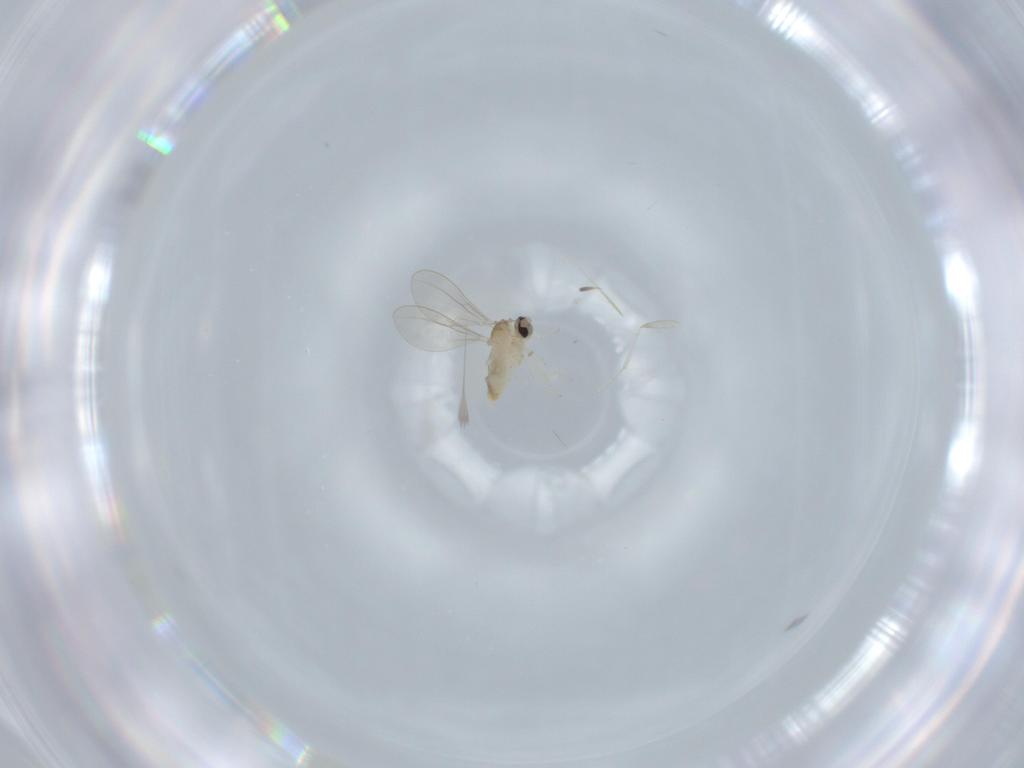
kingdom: Animalia
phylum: Arthropoda
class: Insecta
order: Diptera
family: Cecidomyiidae
